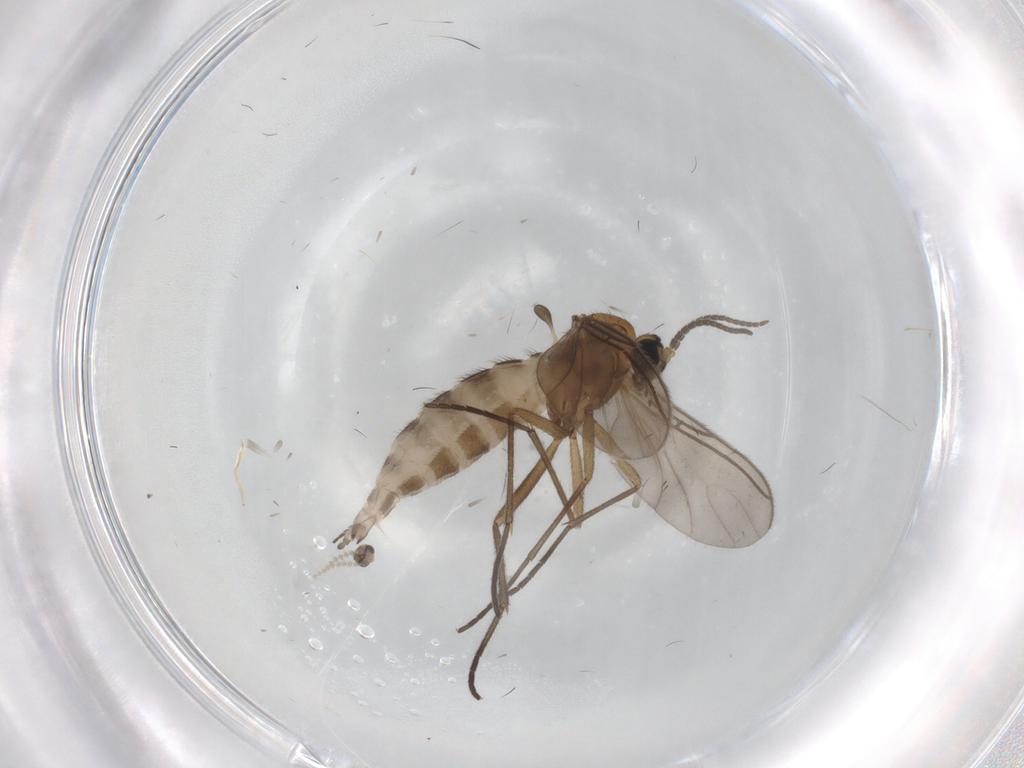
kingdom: Animalia
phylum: Arthropoda
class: Insecta
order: Diptera
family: Sciaridae
